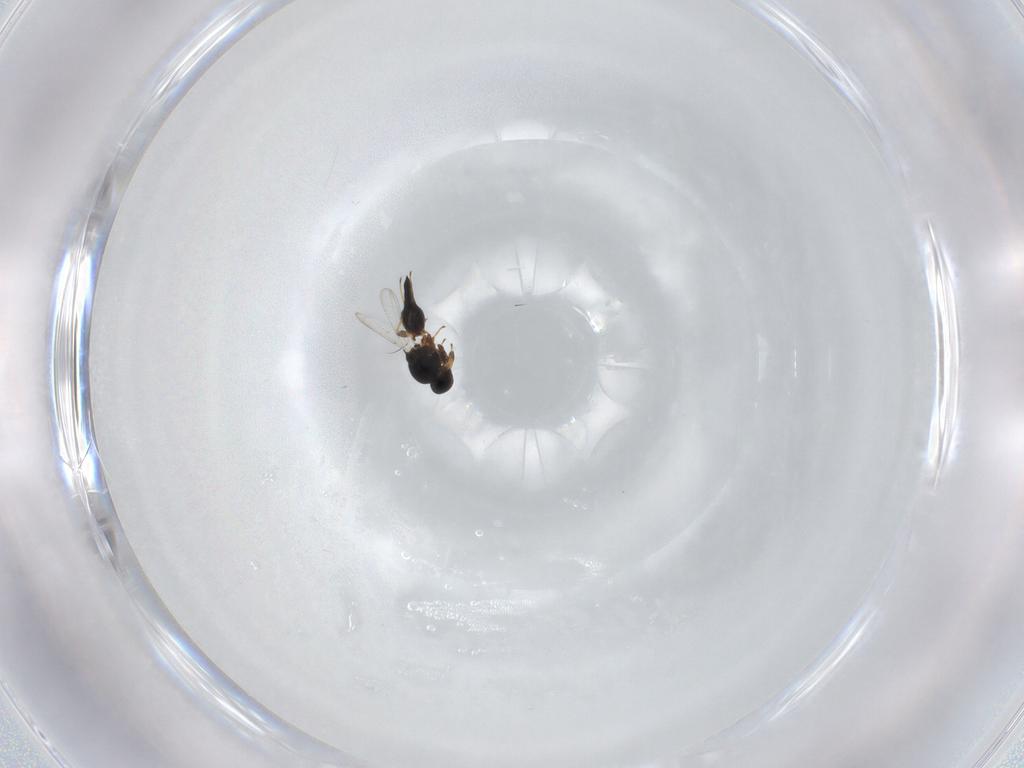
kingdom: Animalia
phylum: Arthropoda
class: Insecta
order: Hymenoptera
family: Platygastridae
